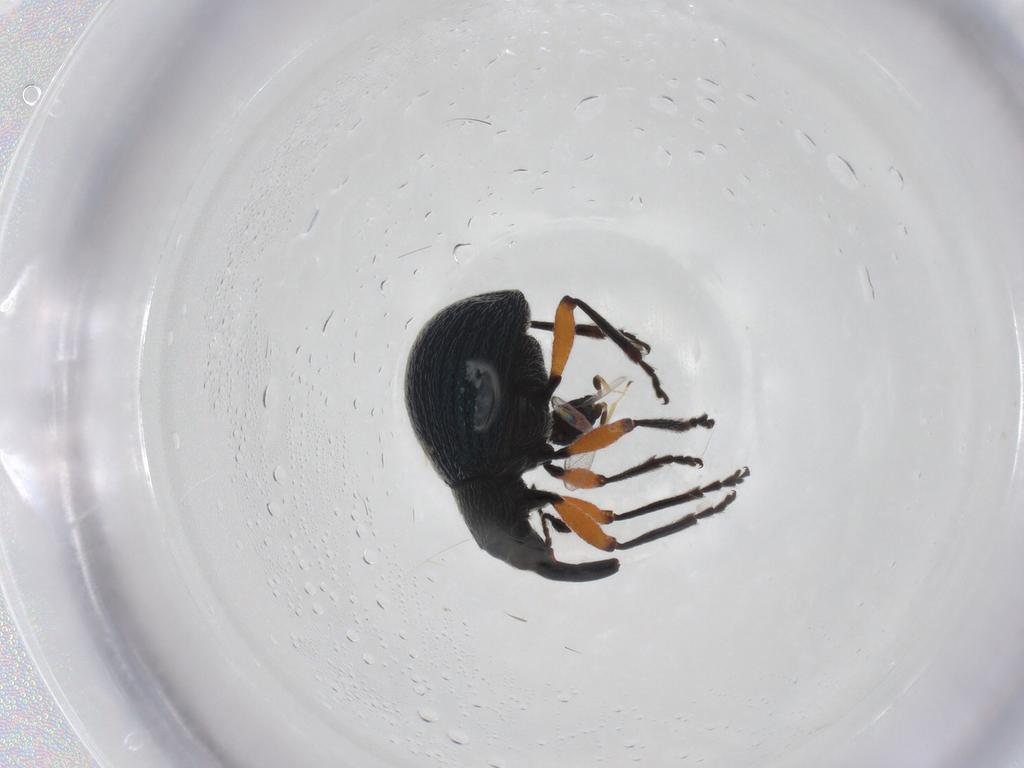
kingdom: Animalia
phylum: Arthropoda
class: Insecta
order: Coleoptera
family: Apionidae
